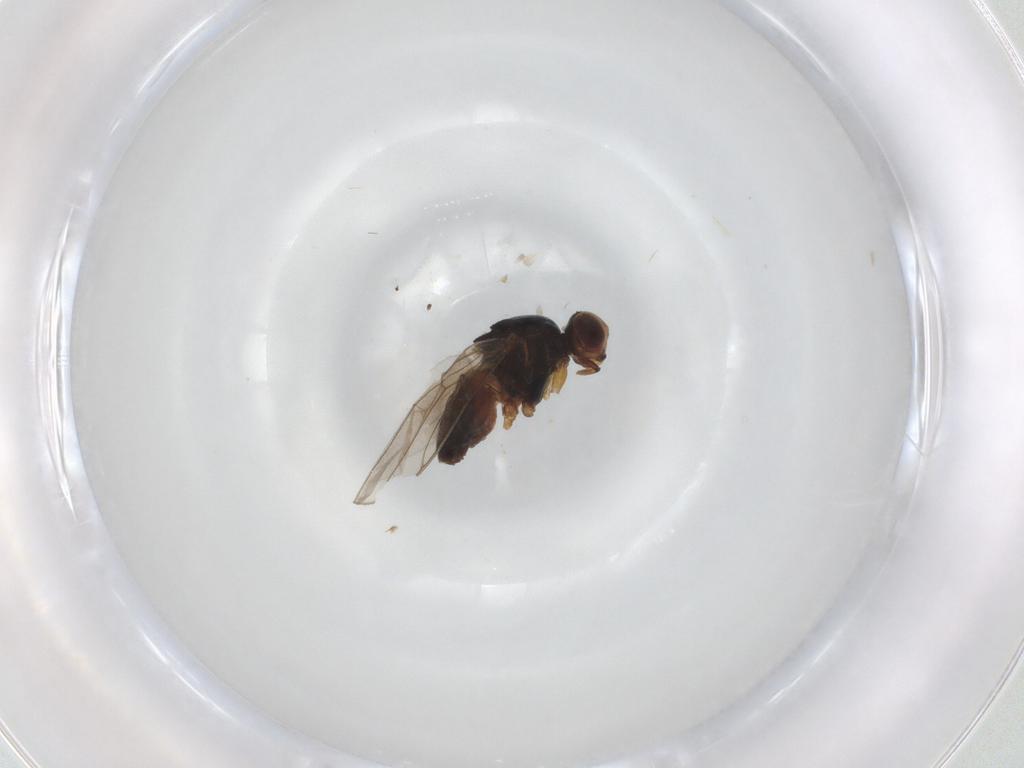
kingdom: Animalia
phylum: Arthropoda
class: Insecta
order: Diptera
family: Chloropidae
